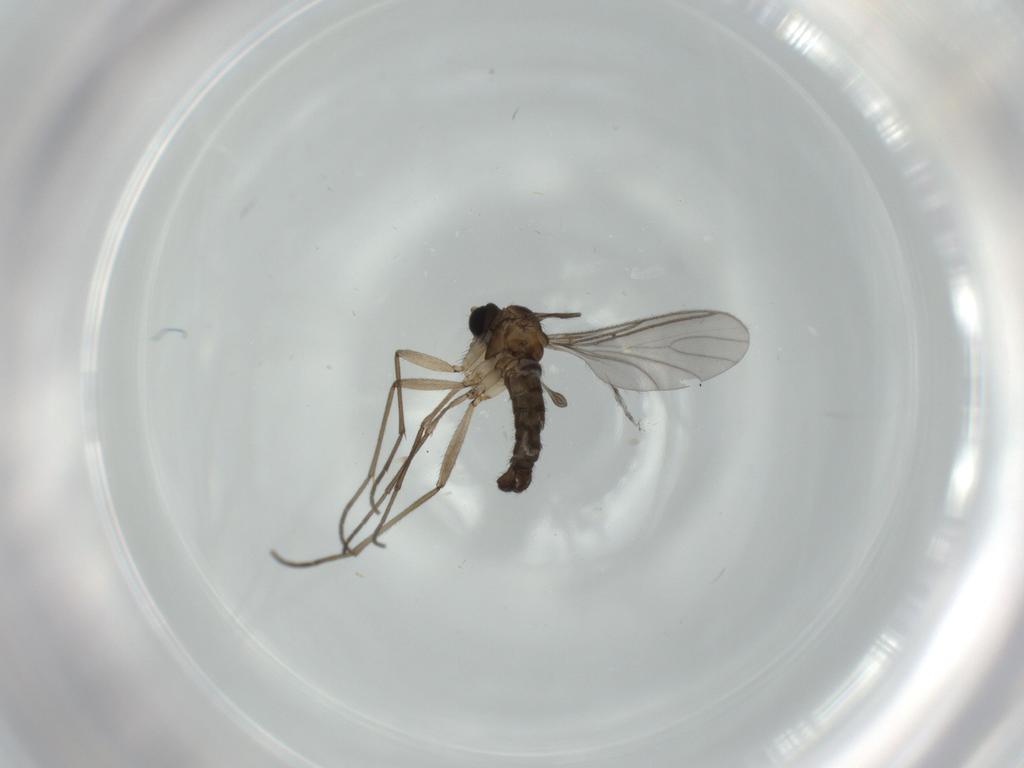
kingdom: Animalia
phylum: Arthropoda
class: Insecta
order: Diptera
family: Sciaridae
